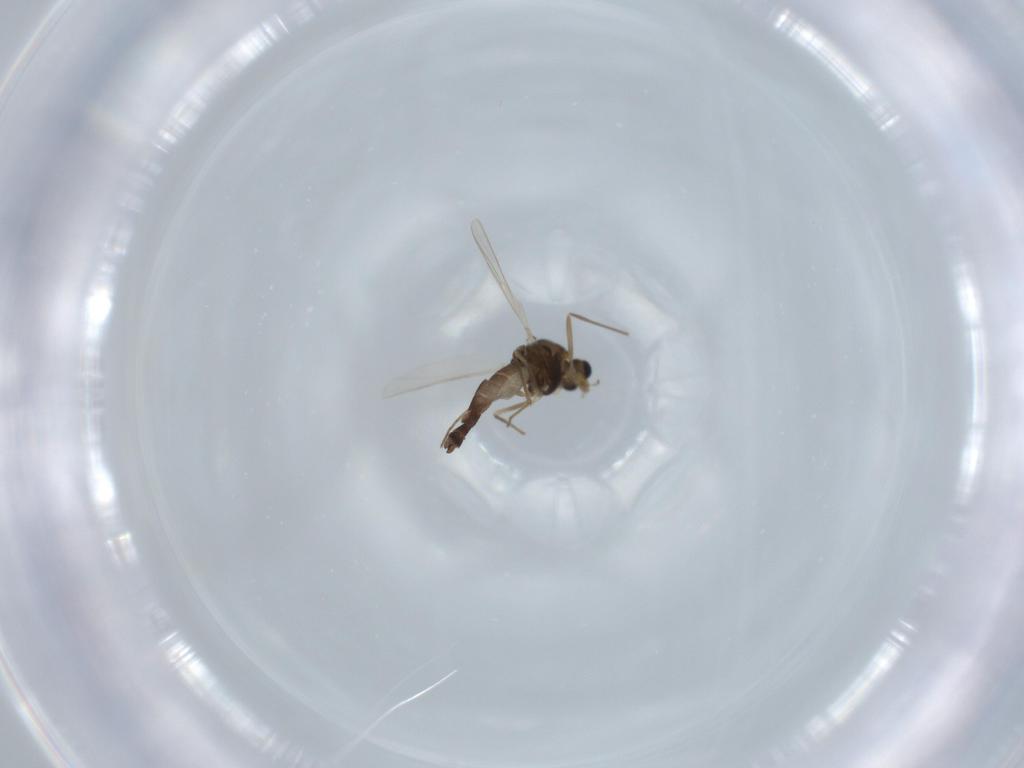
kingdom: Animalia
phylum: Arthropoda
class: Insecta
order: Diptera
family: Chironomidae
